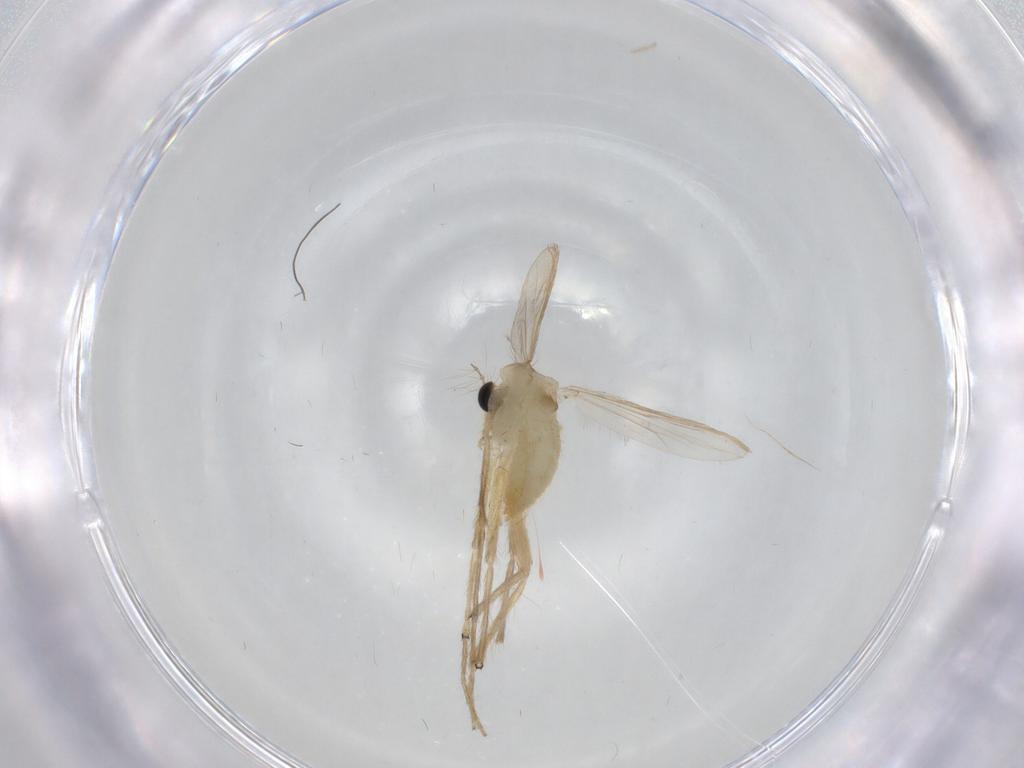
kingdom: Animalia
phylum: Arthropoda
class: Insecta
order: Diptera
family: Chironomidae
